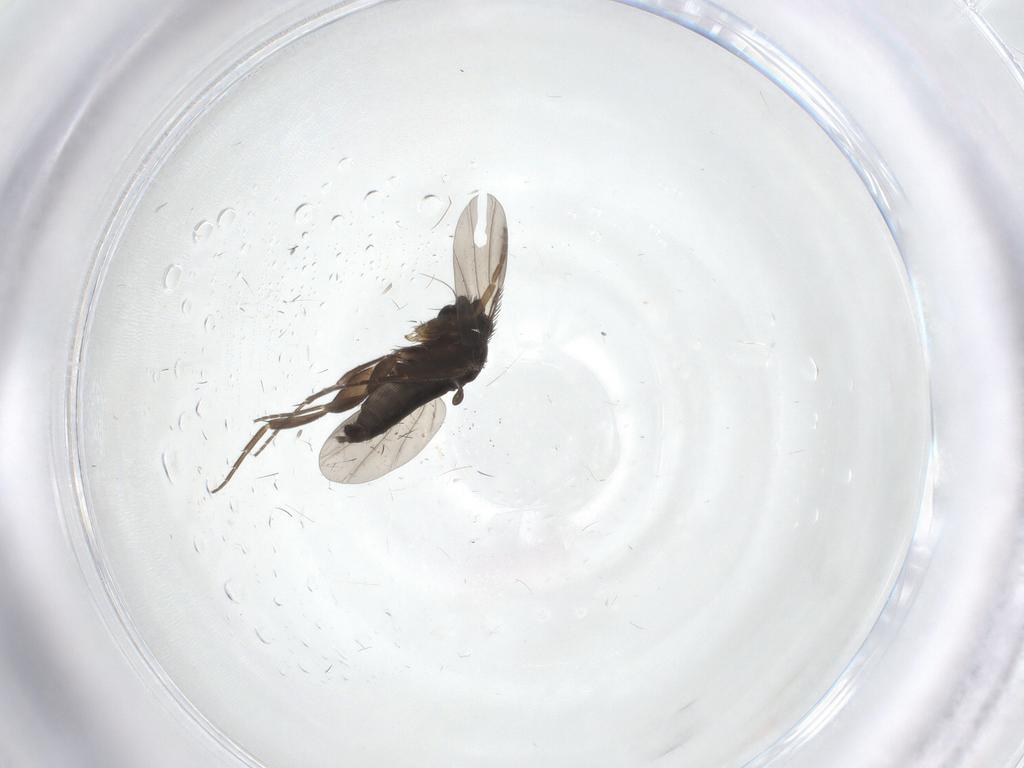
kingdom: Animalia
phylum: Arthropoda
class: Insecta
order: Diptera
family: Phoridae
